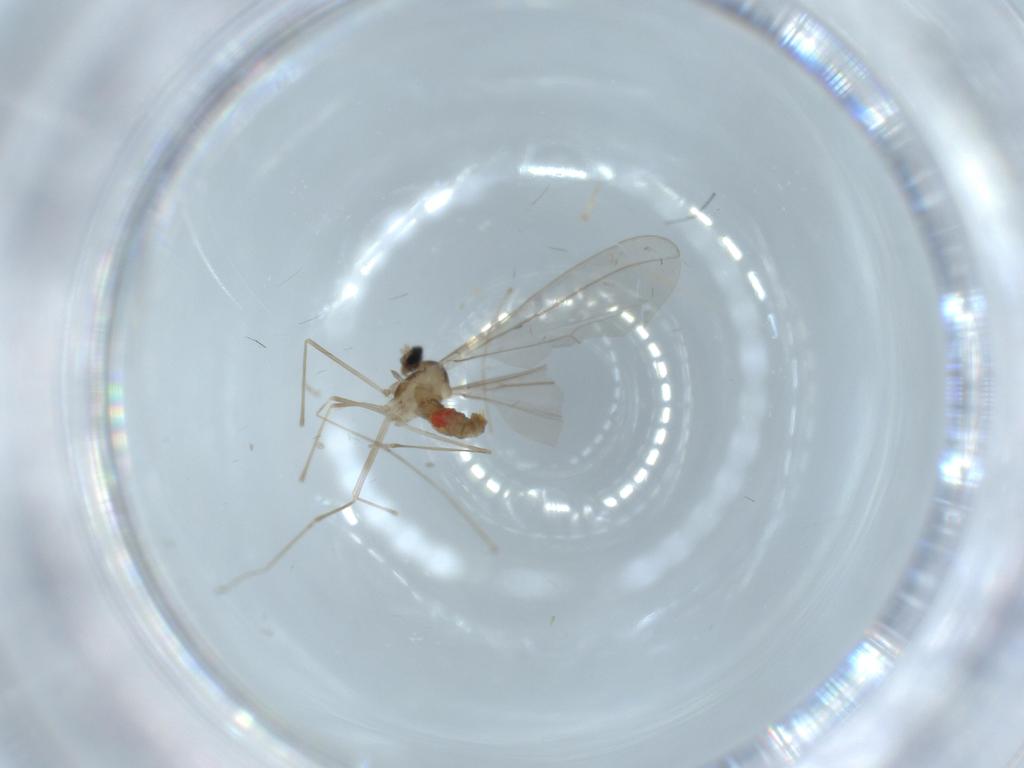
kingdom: Animalia
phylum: Arthropoda
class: Insecta
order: Diptera
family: Cecidomyiidae
